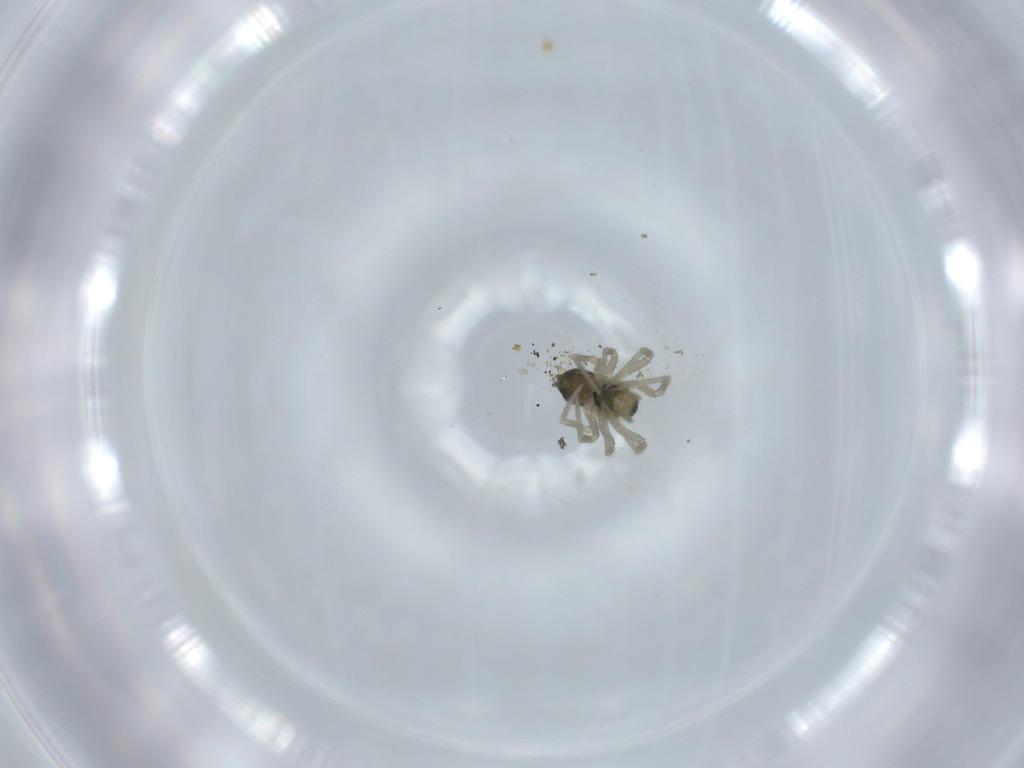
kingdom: Animalia
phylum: Arthropoda
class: Arachnida
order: Araneae
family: Linyphiidae
